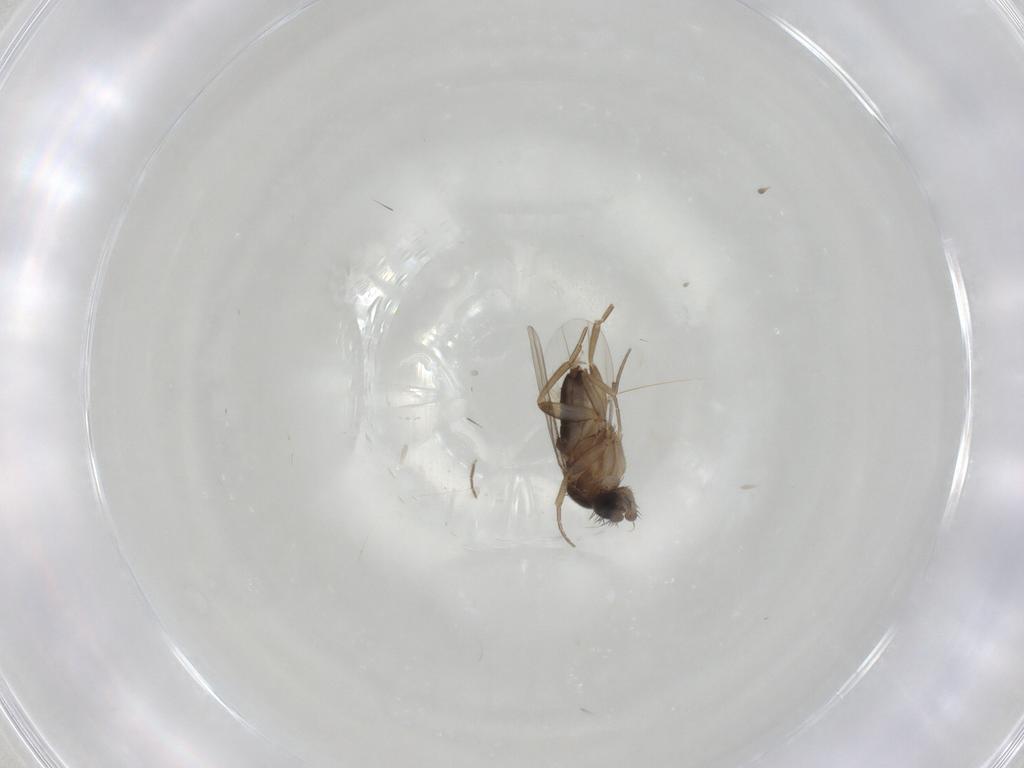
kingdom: Animalia
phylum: Arthropoda
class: Insecta
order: Diptera
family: Phoridae
